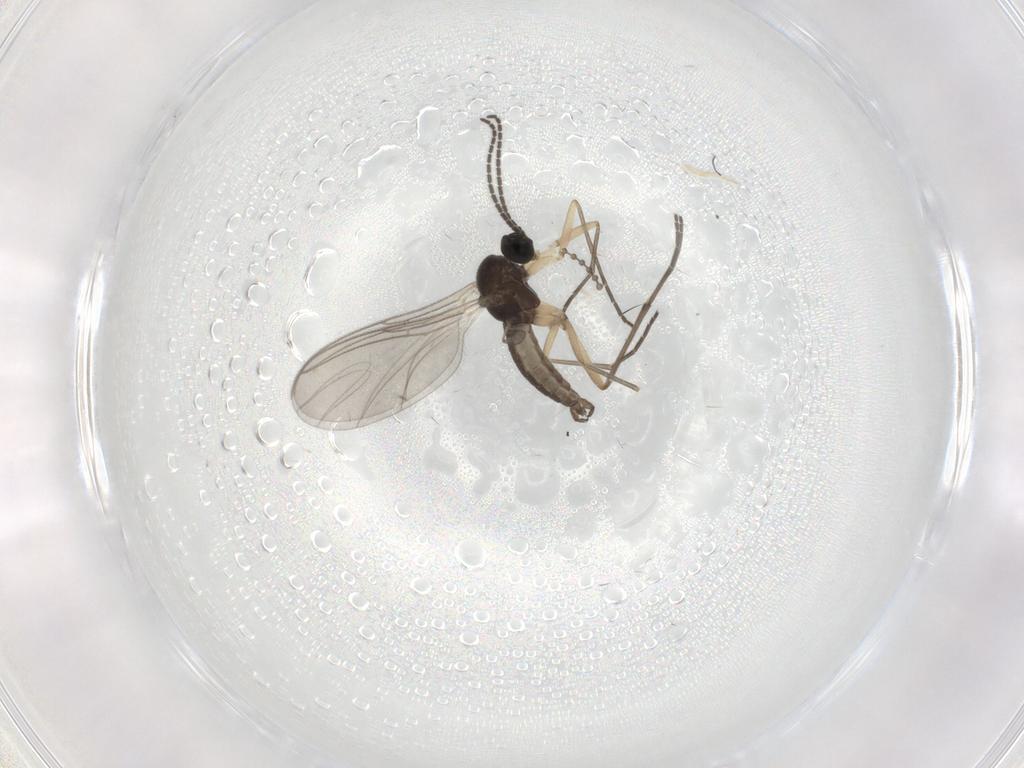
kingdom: Animalia
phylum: Arthropoda
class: Insecta
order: Diptera
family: Sciaridae
